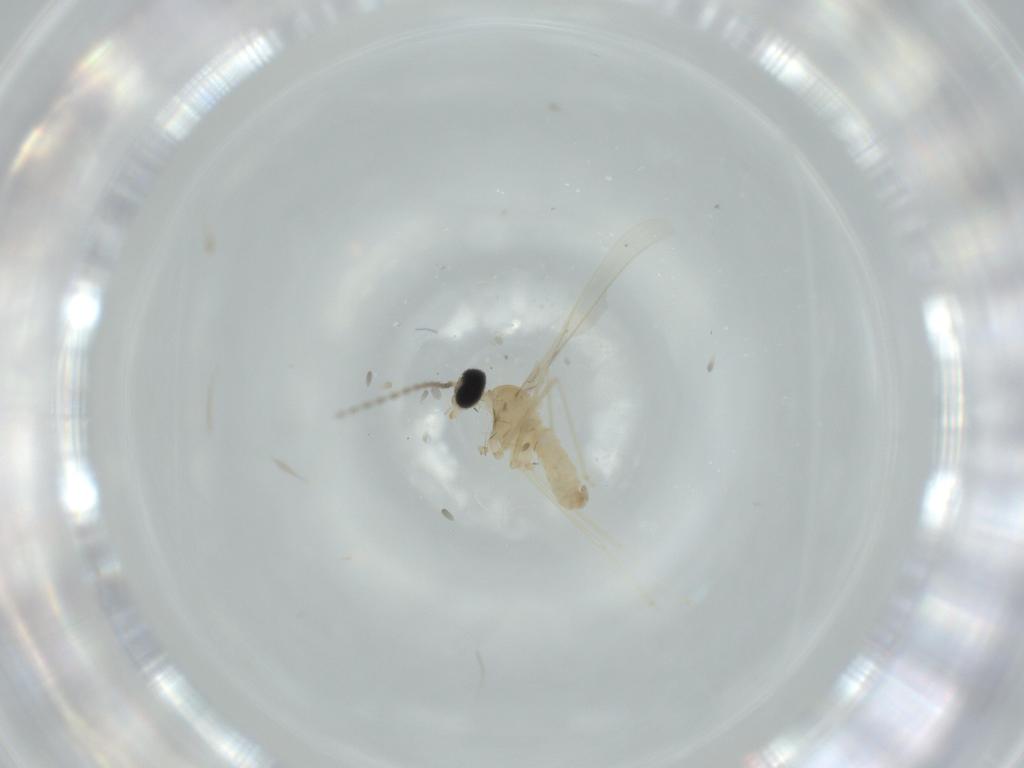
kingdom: Animalia
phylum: Arthropoda
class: Insecta
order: Diptera
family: Cecidomyiidae
